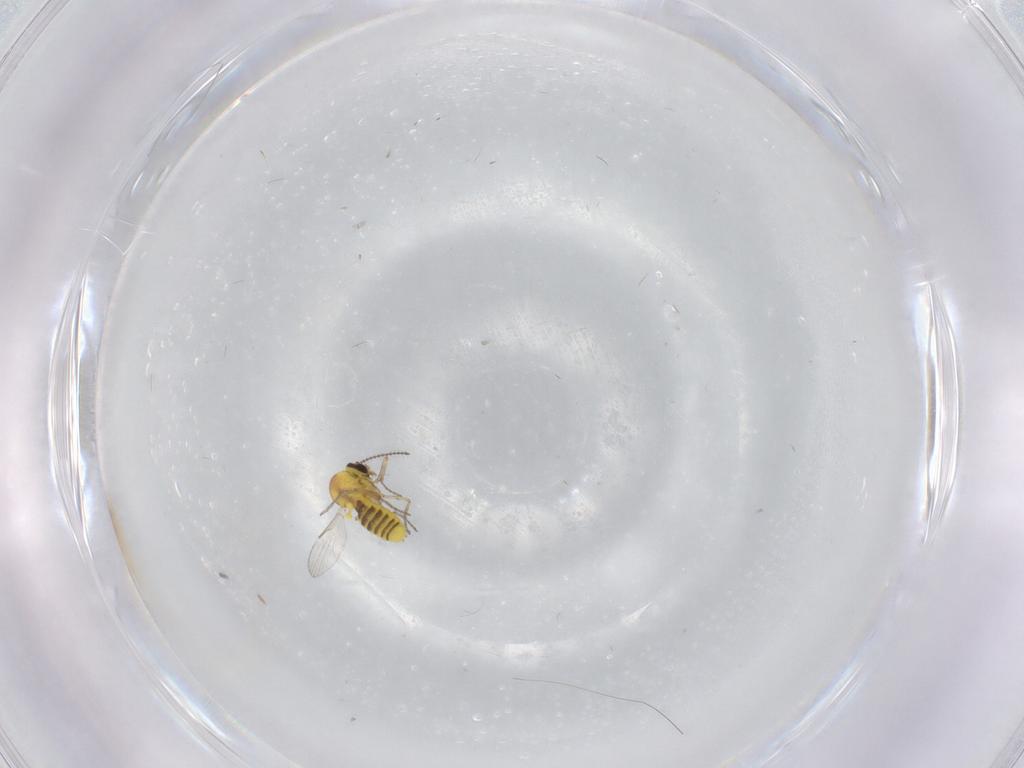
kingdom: Animalia
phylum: Arthropoda
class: Insecta
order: Diptera
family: Phoridae
